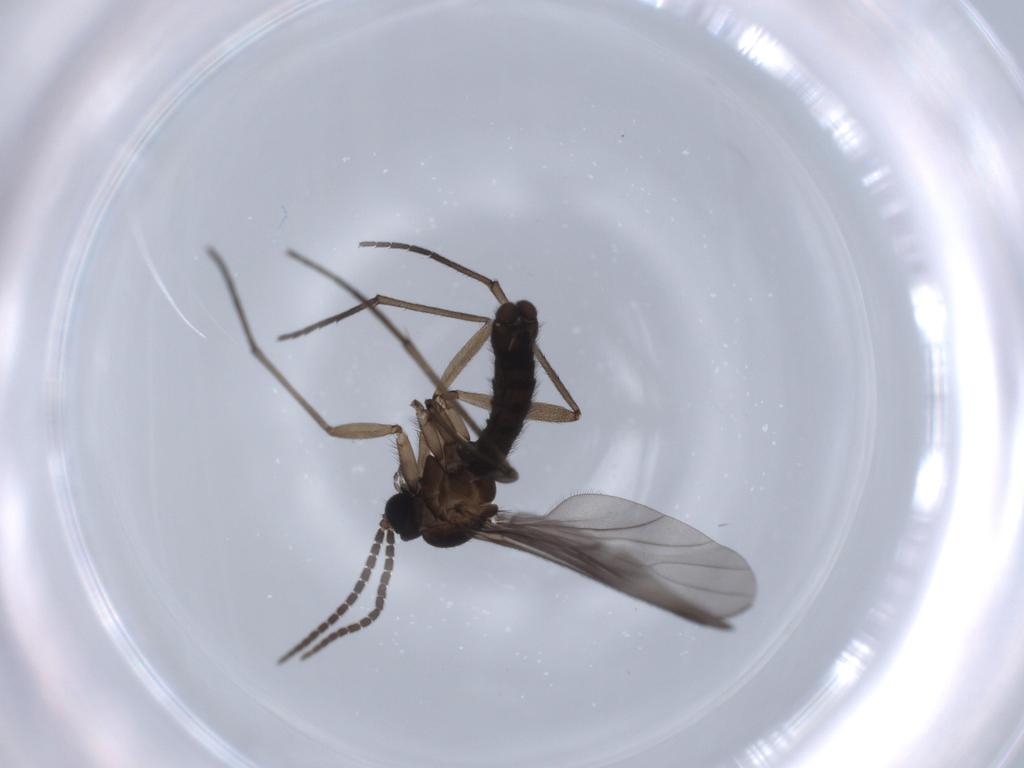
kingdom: Animalia
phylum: Arthropoda
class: Insecta
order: Diptera
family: Sciaridae
